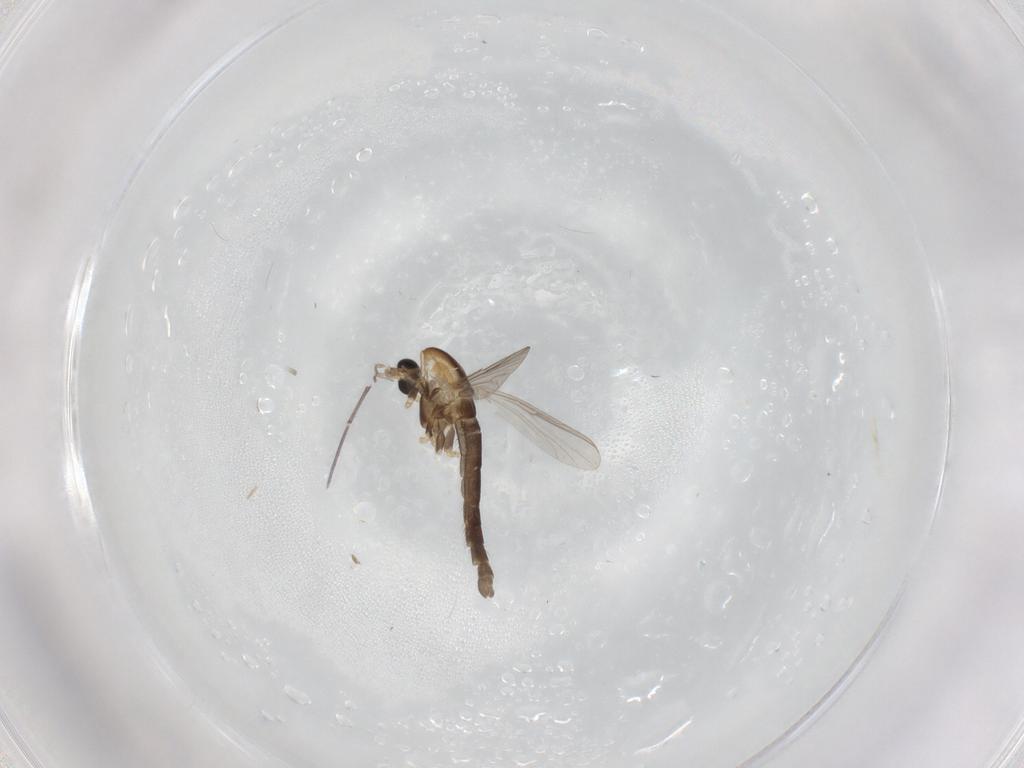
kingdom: Animalia
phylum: Arthropoda
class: Insecta
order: Diptera
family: Chironomidae
